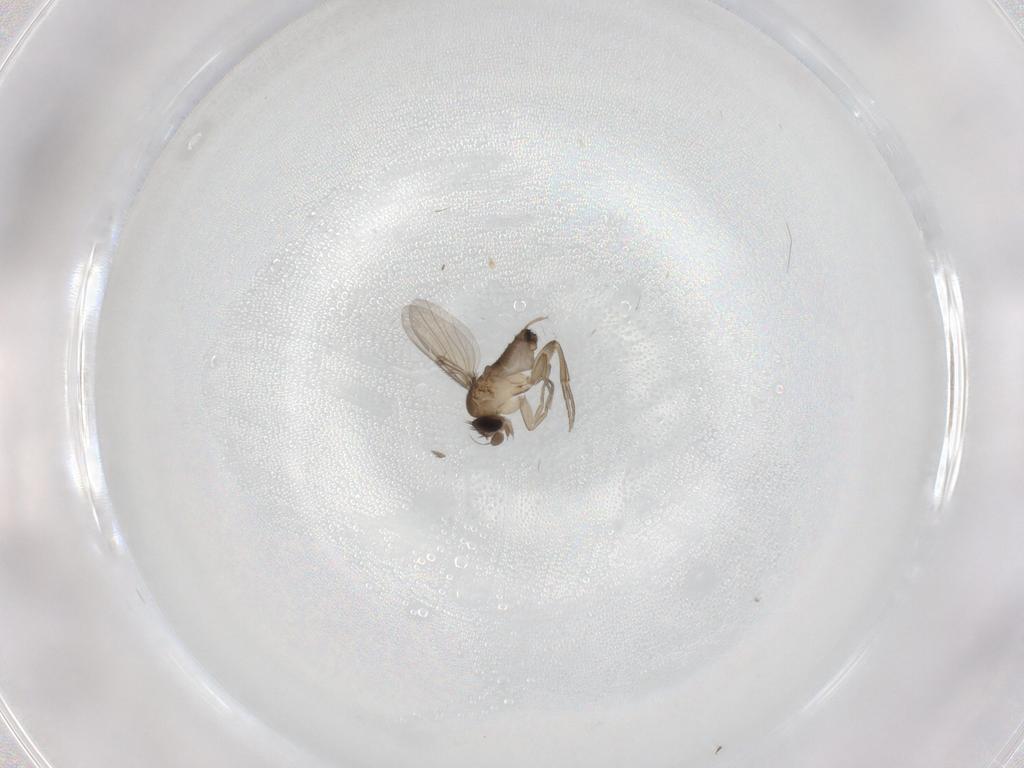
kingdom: Animalia
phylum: Arthropoda
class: Insecta
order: Diptera
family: Phoridae
